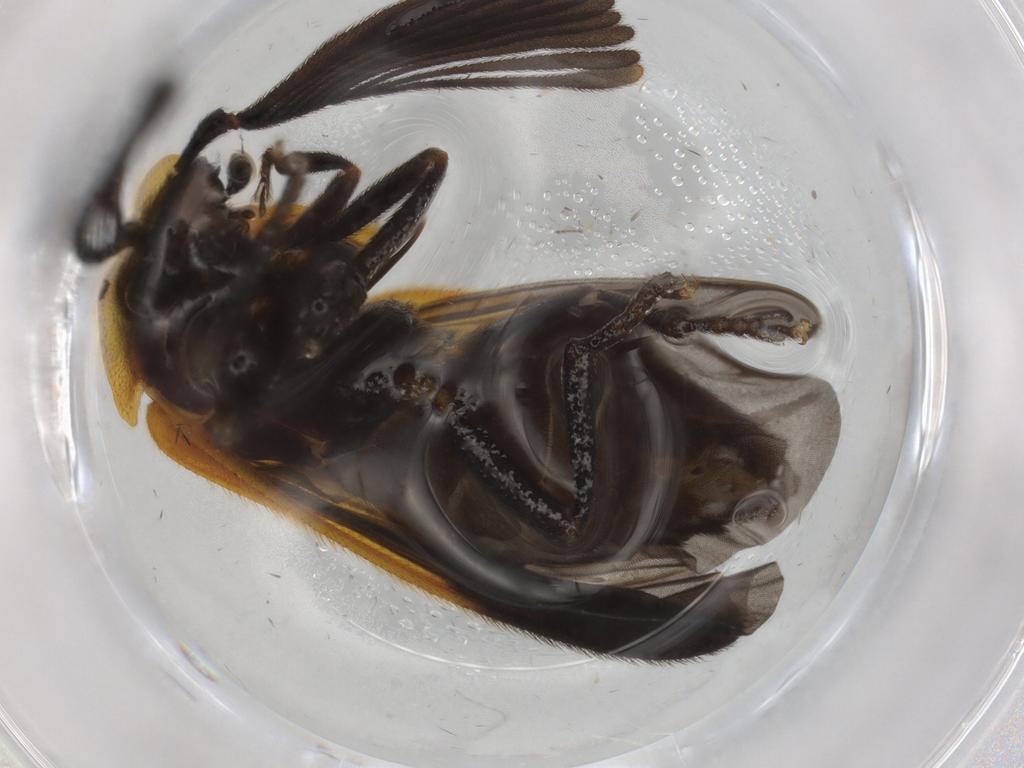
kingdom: Animalia
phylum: Arthropoda
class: Insecta
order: Coleoptera
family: Lampyridae
